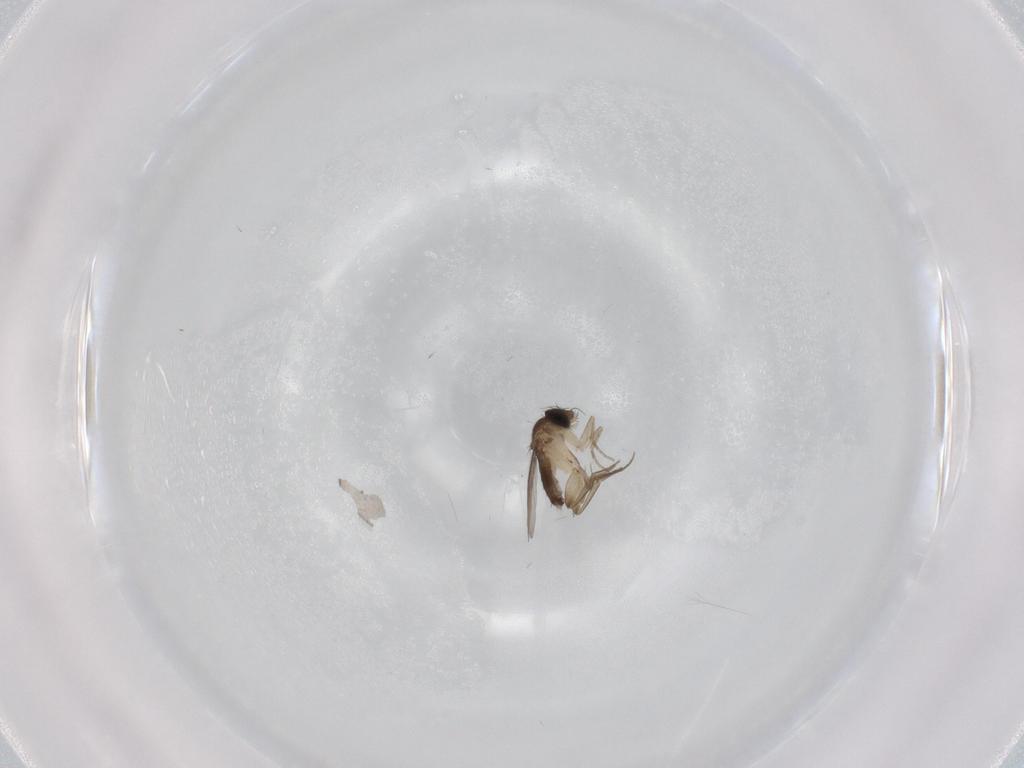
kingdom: Animalia
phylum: Arthropoda
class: Insecta
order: Diptera
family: Phoridae
